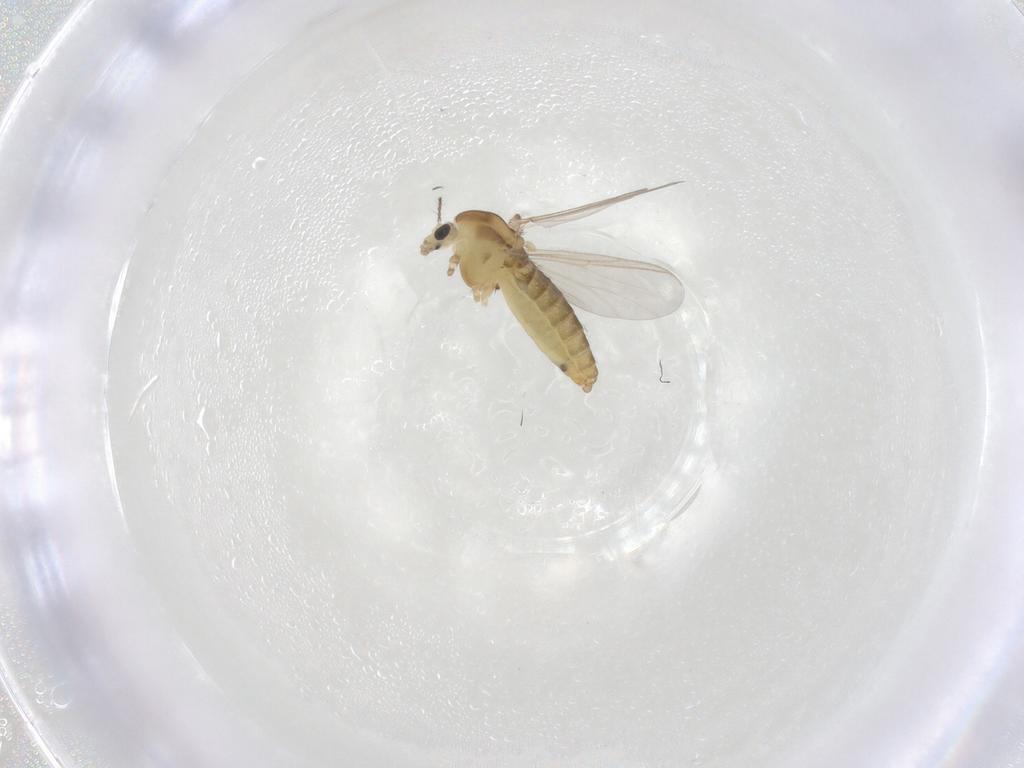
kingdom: Animalia
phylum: Arthropoda
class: Insecta
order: Diptera
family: Chironomidae
